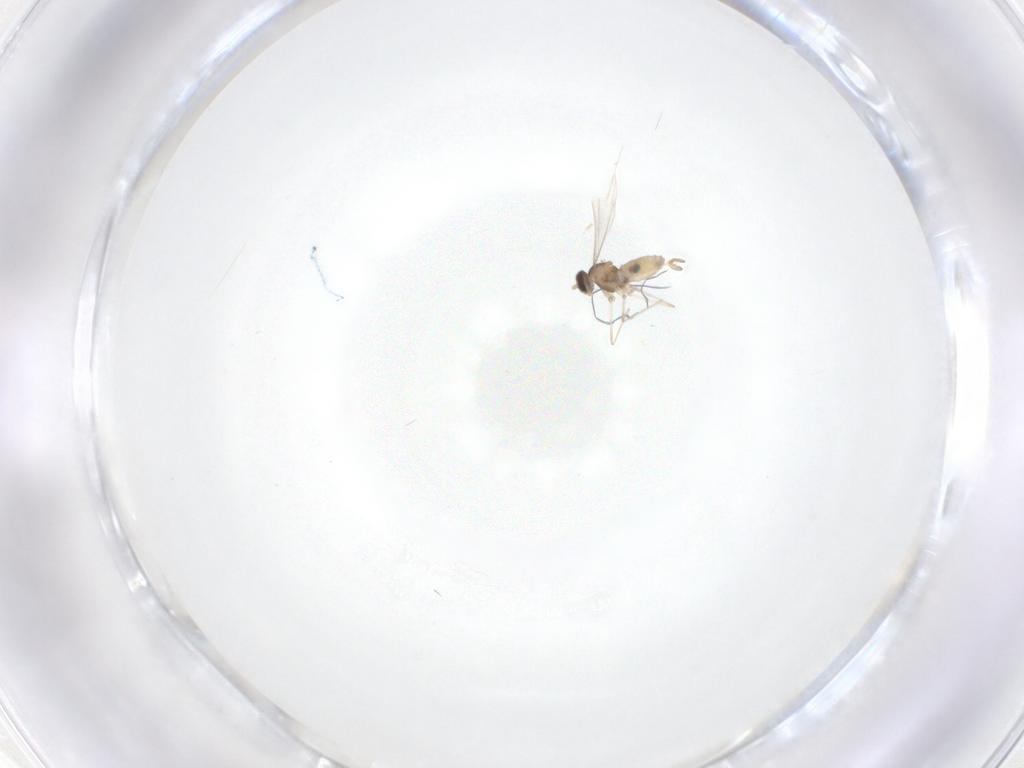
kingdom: Animalia
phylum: Arthropoda
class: Insecta
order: Diptera
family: Cecidomyiidae
